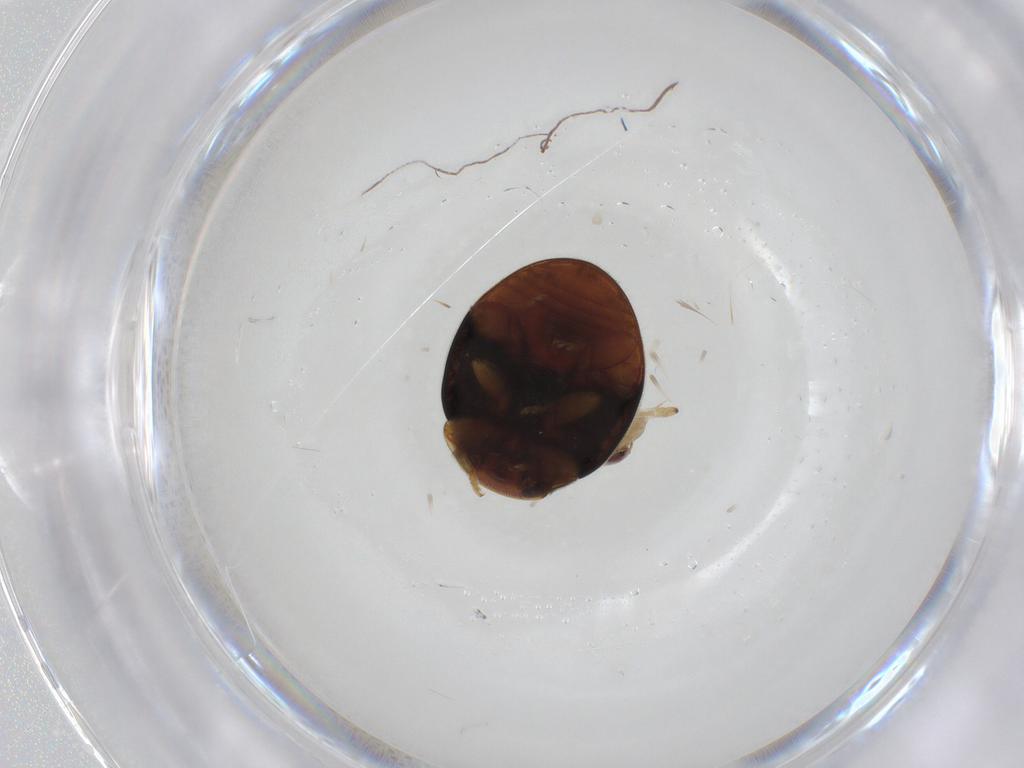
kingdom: Animalia
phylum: Arthropoda
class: Insecta
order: Coleoptera
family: Coccinellidae
